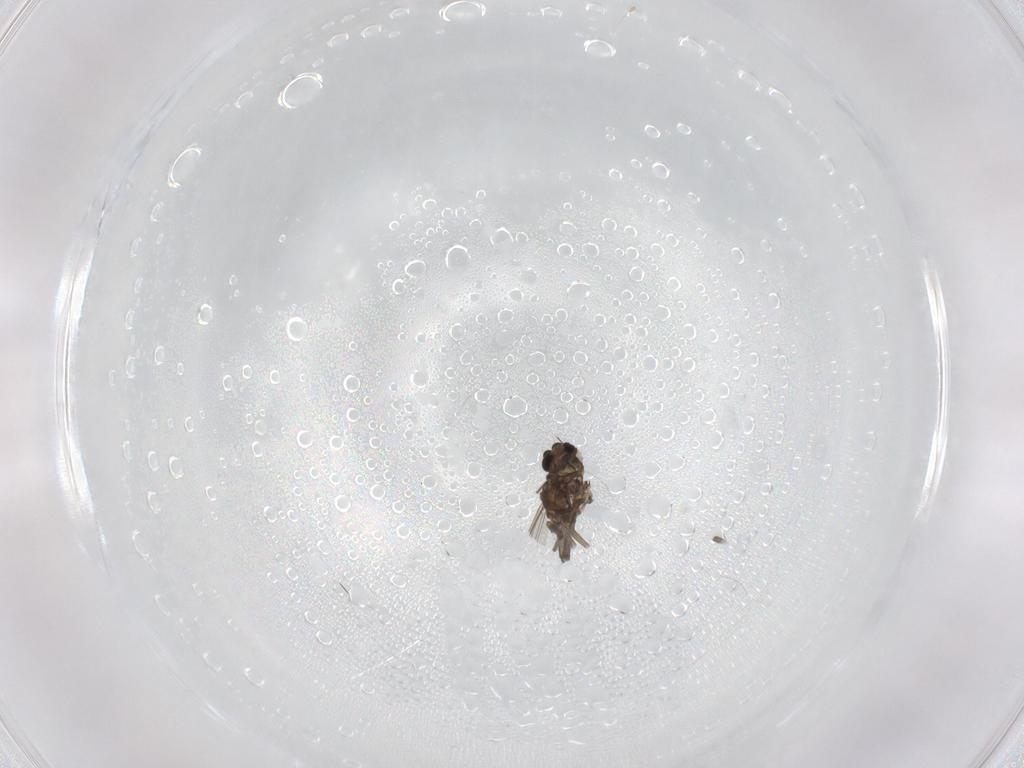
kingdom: Animalia
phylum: Arthropoda
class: Insecta
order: Diptera
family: Chironomidae
